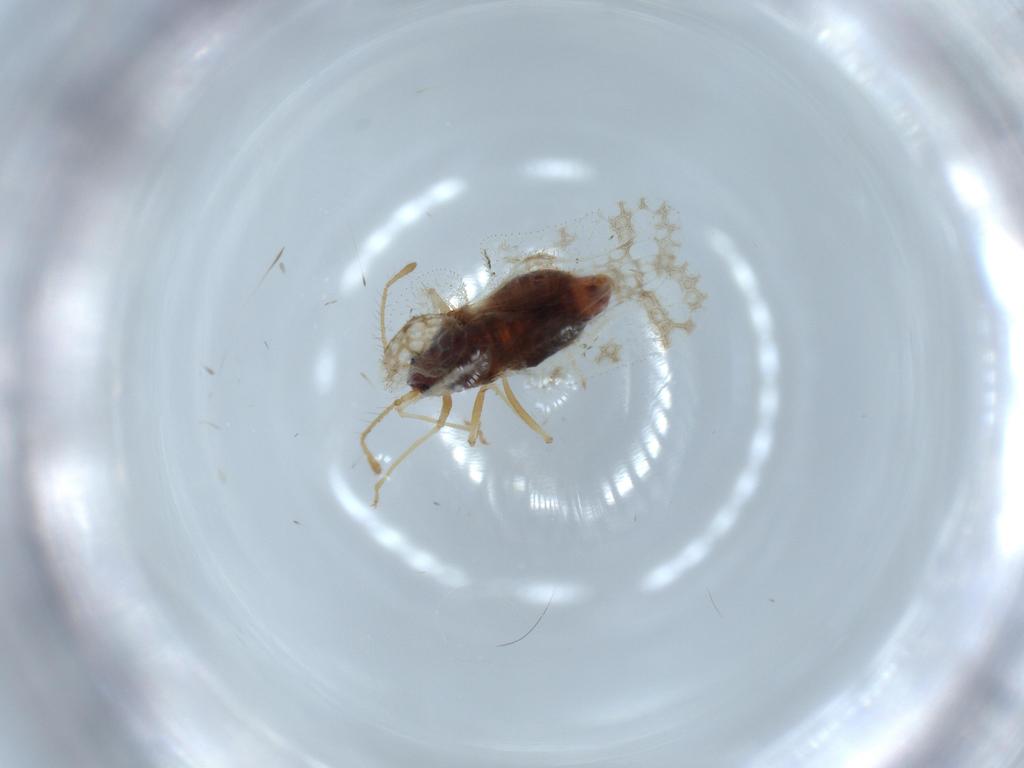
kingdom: Animalia
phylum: Arthropoda
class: Insecta
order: Hemiptera
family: Tingidae
